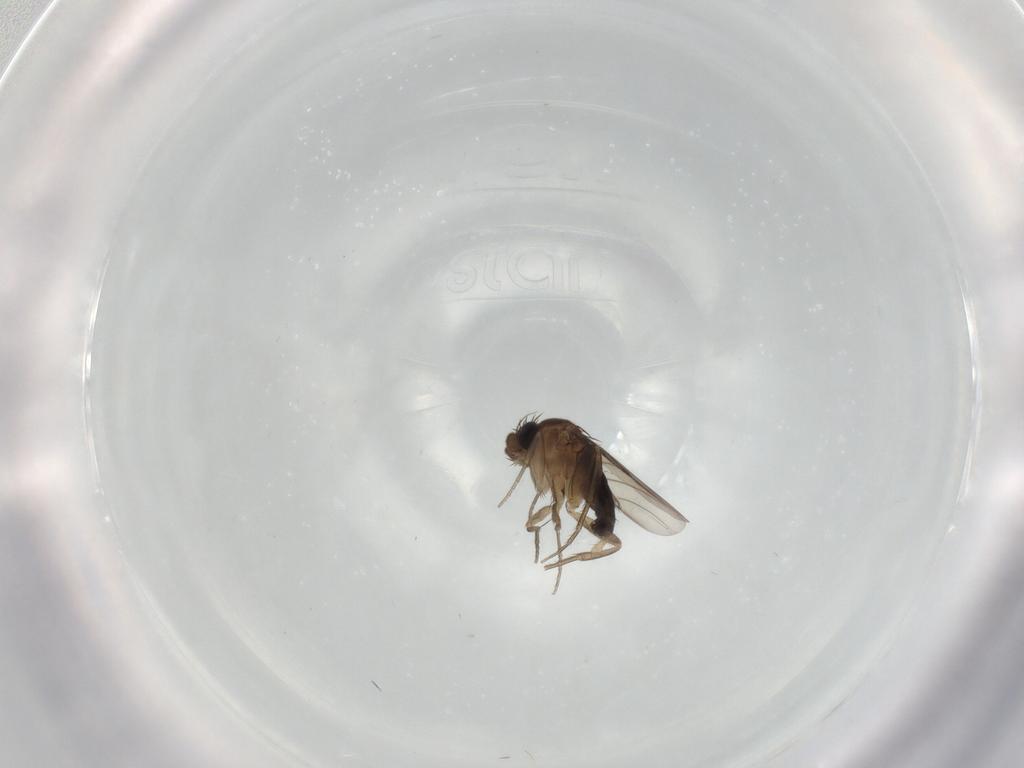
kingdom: Animalia
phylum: Arthropoda
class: Insecta
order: Diptera
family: Phoridae
